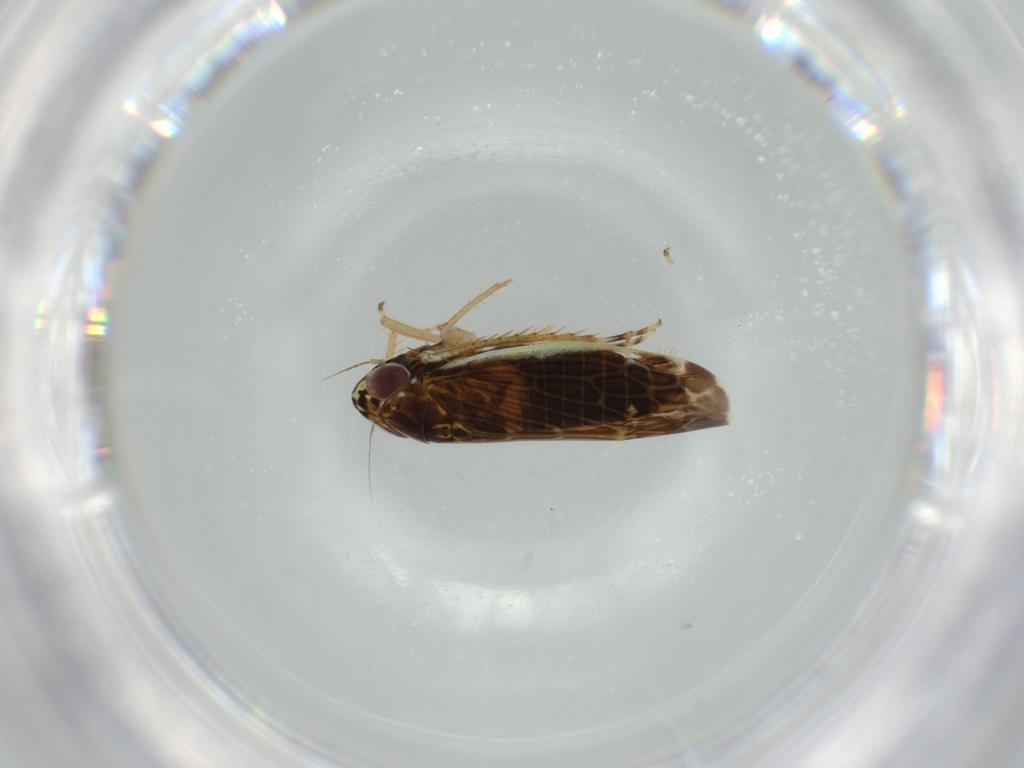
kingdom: Animalia
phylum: Arthropoda
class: Insecta
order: Hemiptera
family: Cicadellidae
